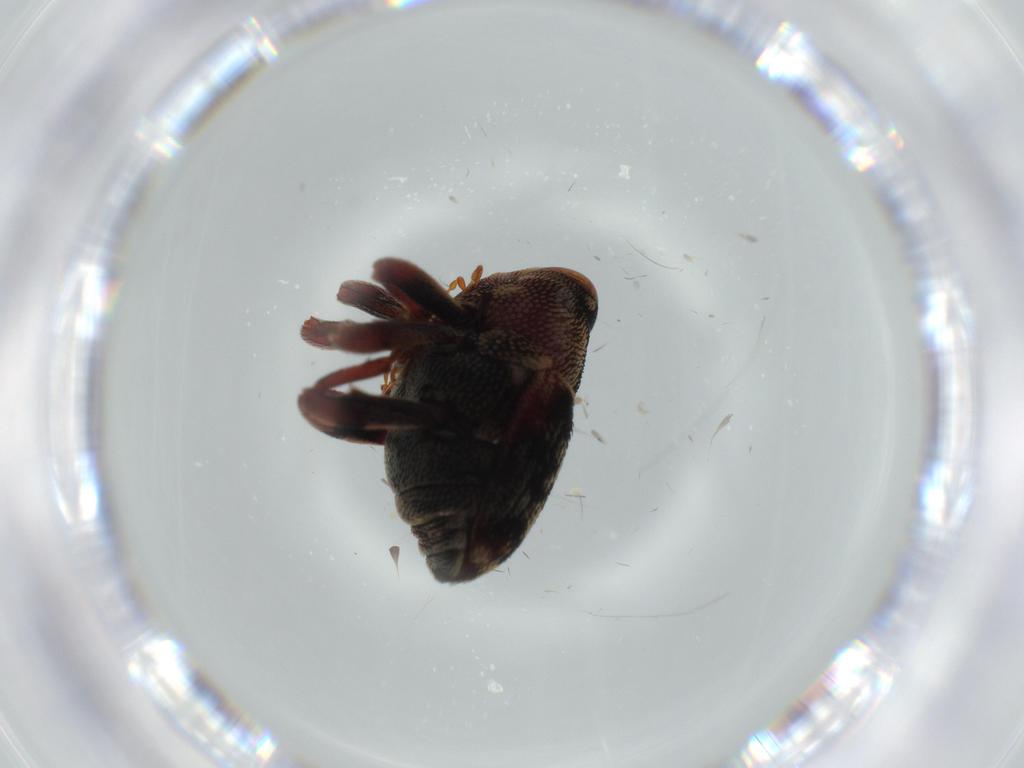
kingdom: Animalia
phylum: Arthropoda
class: Insecta
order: Coleoptera
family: Curculionidae
